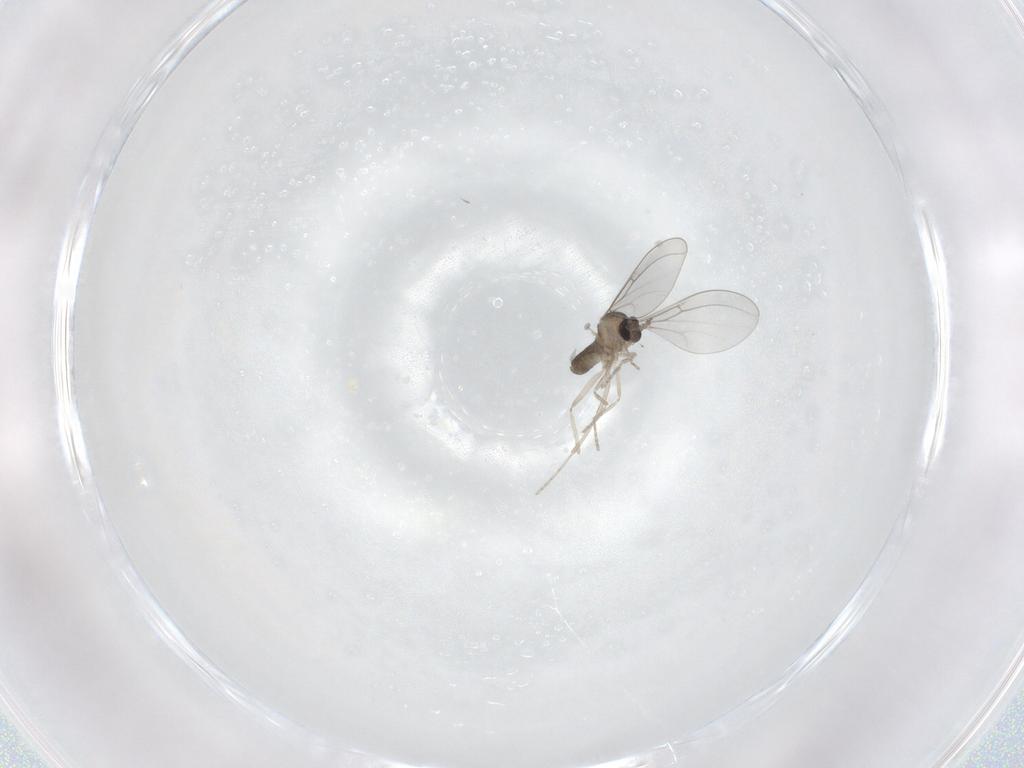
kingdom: Animalia
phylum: Arthropoda
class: Insecta
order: Diptera
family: Cecidomyiidae
